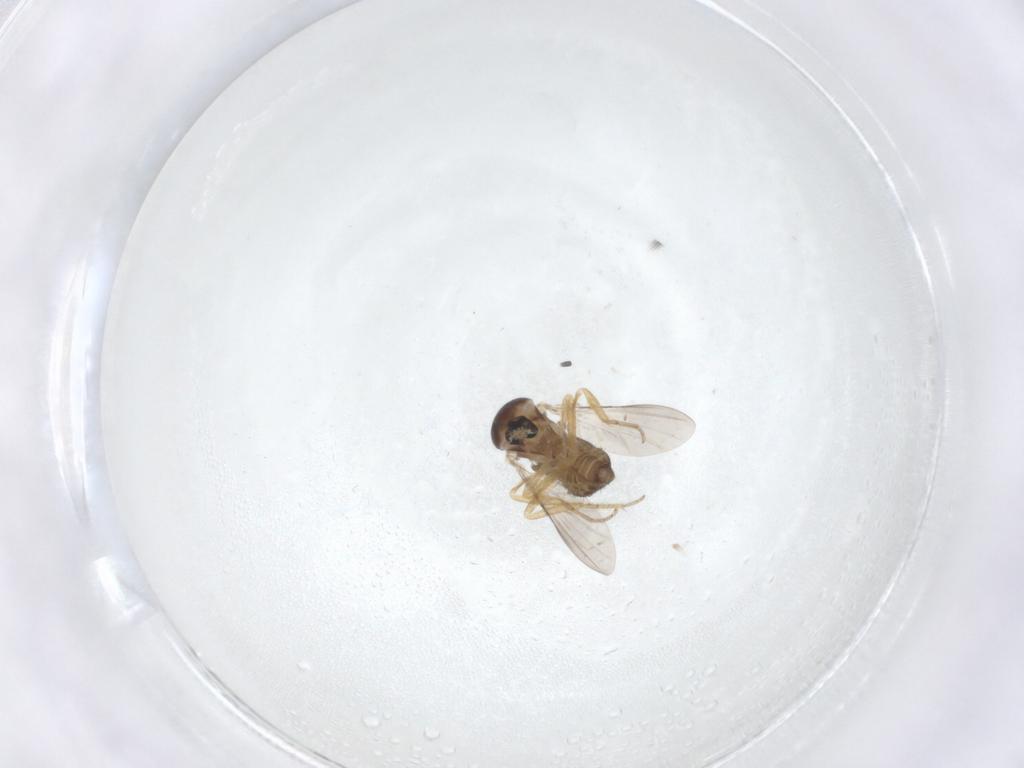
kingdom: Animalia
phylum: Arthropoda
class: Insecta
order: Diptera
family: Ceratopogonidae
